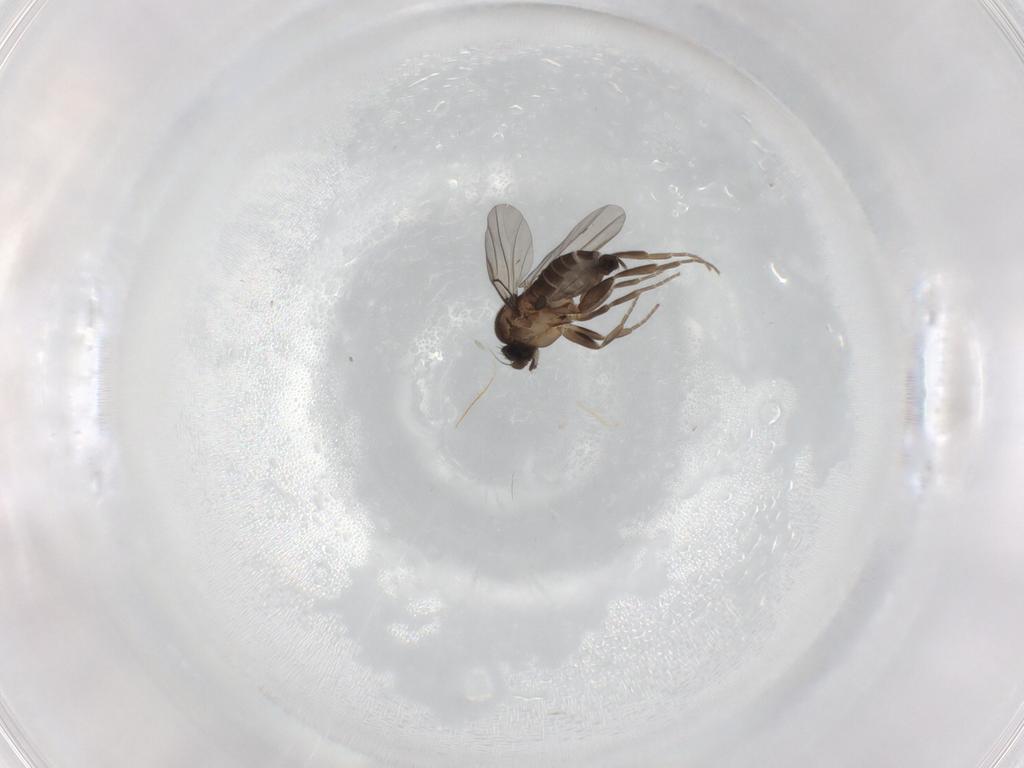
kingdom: Animalia
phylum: Arthropoda
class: Insecta
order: Diptera
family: Phoridae
